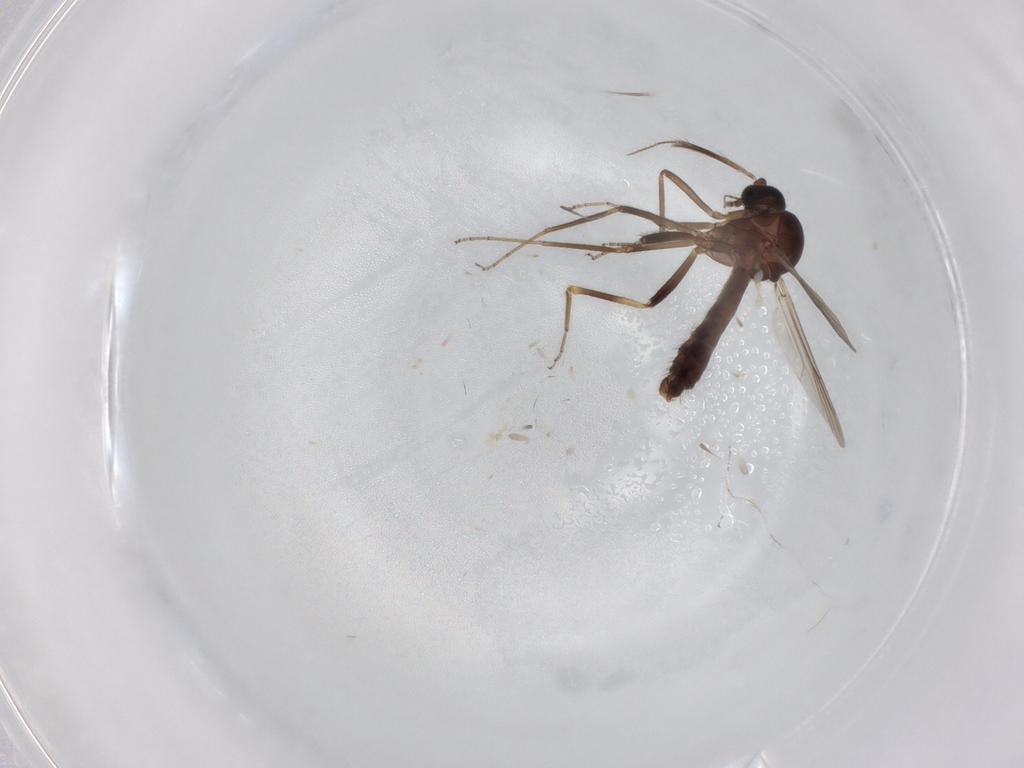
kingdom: Animalia
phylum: Arthropoda
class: Insecta
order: Diptera
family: Phoridae
